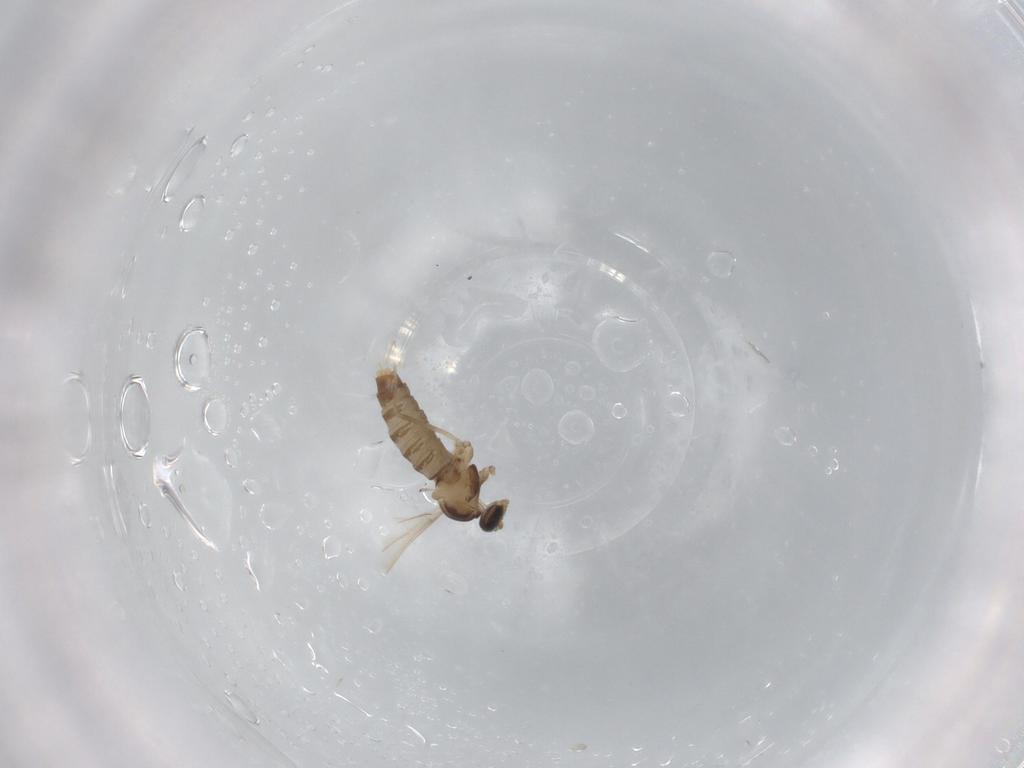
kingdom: Animalia
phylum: Arthropoda
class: Insecta
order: Diptera
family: Cecidomyiidae
